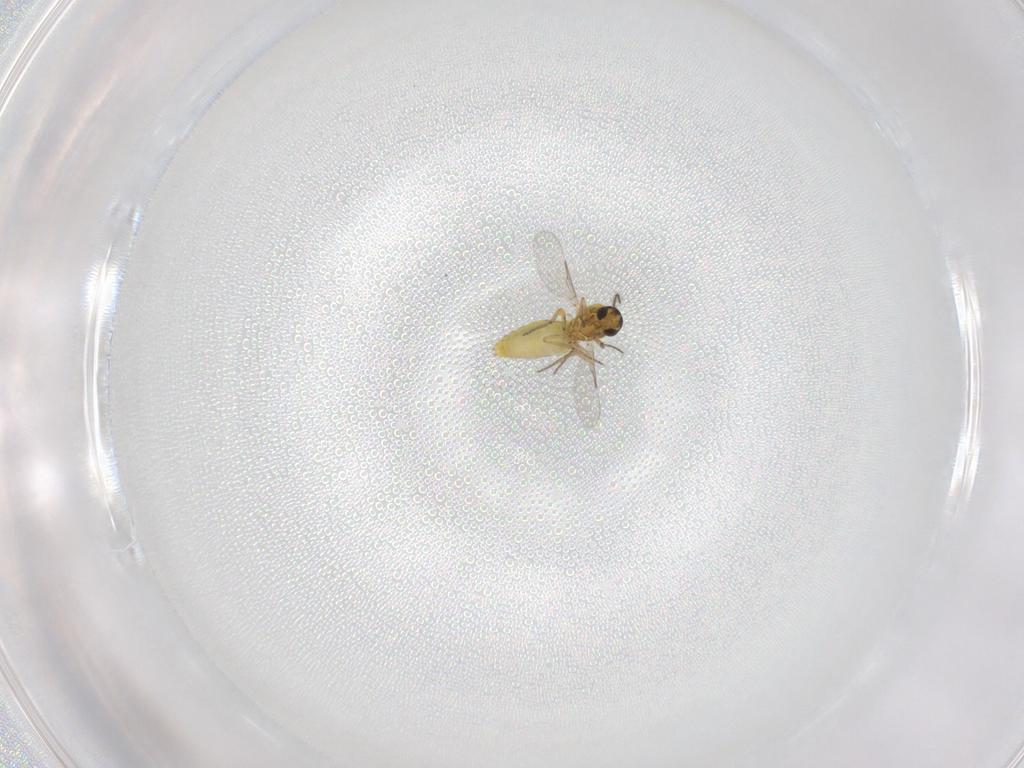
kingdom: Animalia
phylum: Arthropoda
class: Insecta
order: Diptera
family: Ceratopogonidae
